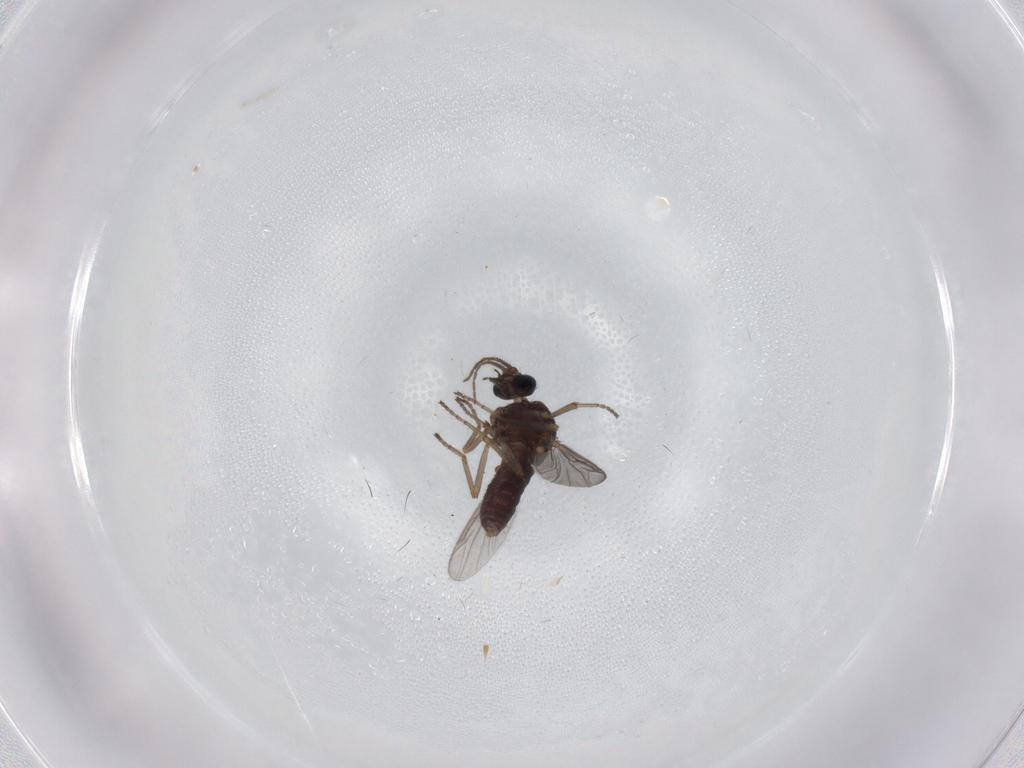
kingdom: Animalia
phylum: Arthropoda
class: Insecta
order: Diptera
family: Ceratopogonidae
